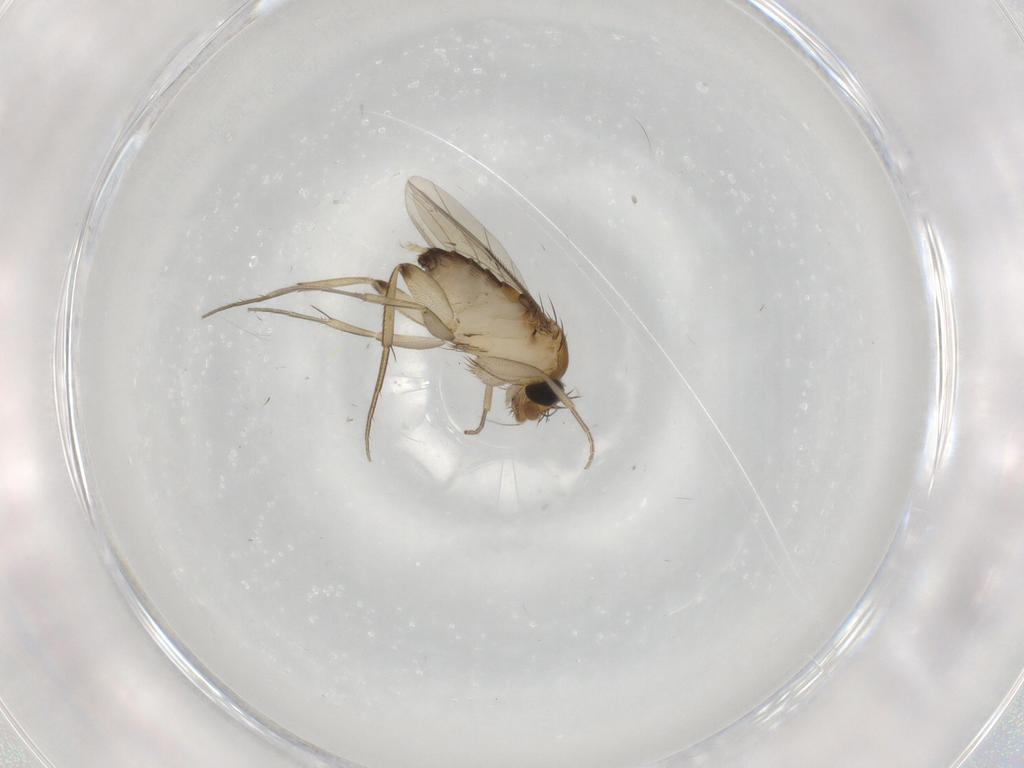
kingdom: Animalia
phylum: Arthropoda
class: Insecta
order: Diptera
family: Phoridae
